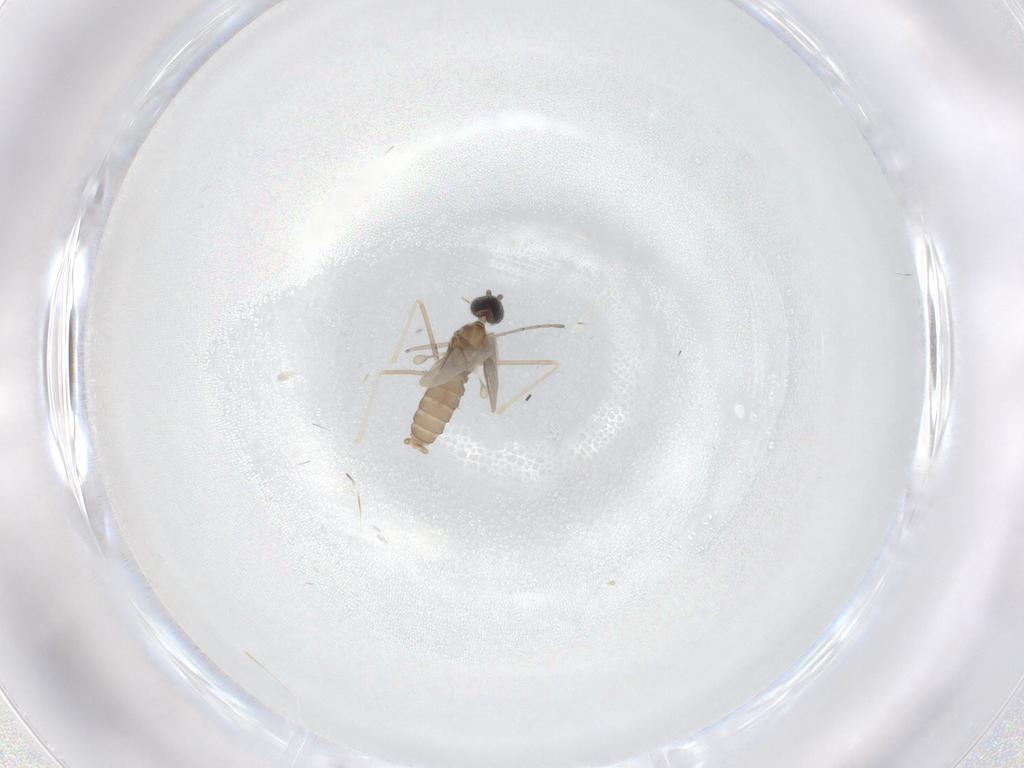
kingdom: Animalia
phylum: Arthropoda
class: Insecta
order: Diptera
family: Cecidomyiidae
